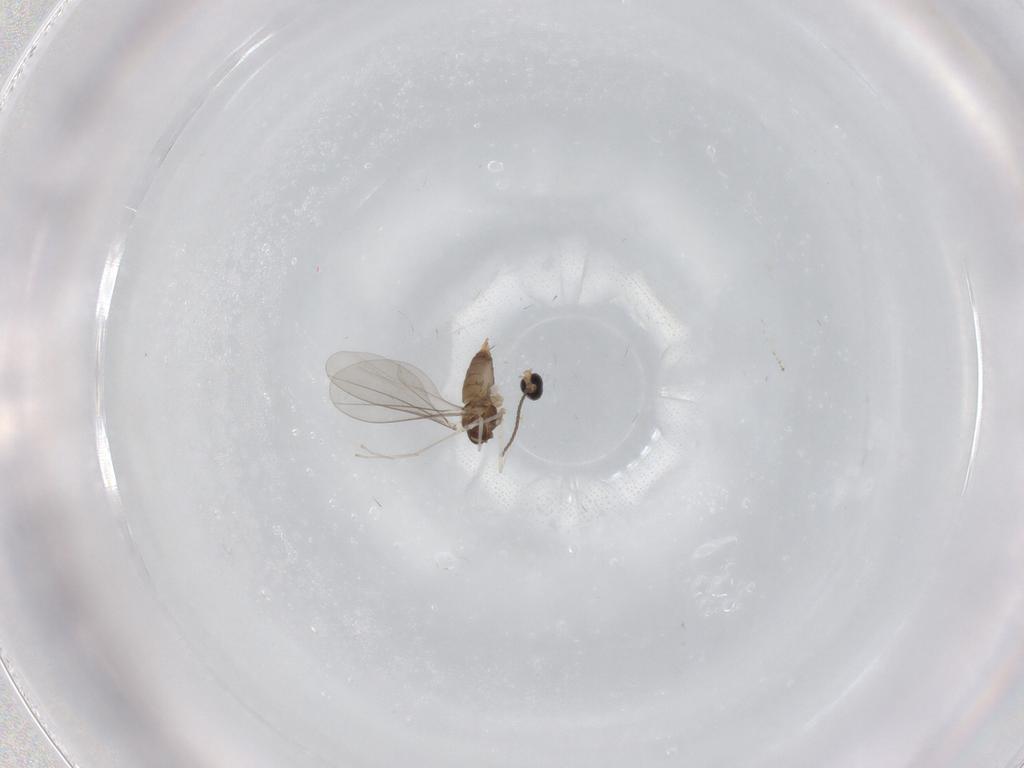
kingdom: Animalia
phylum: Arthropoda
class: Insecta
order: Diptera
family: Cecidomyiidae
